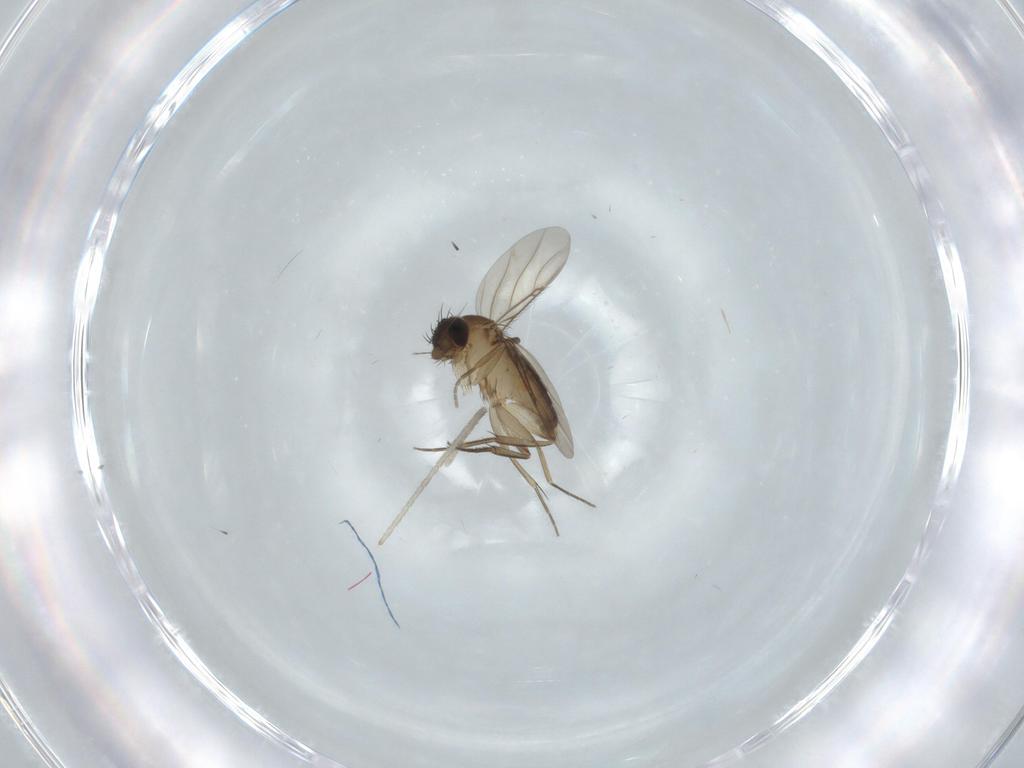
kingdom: Animalia
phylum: Arthropoda
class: Insecta
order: Diptera
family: Phoridae
